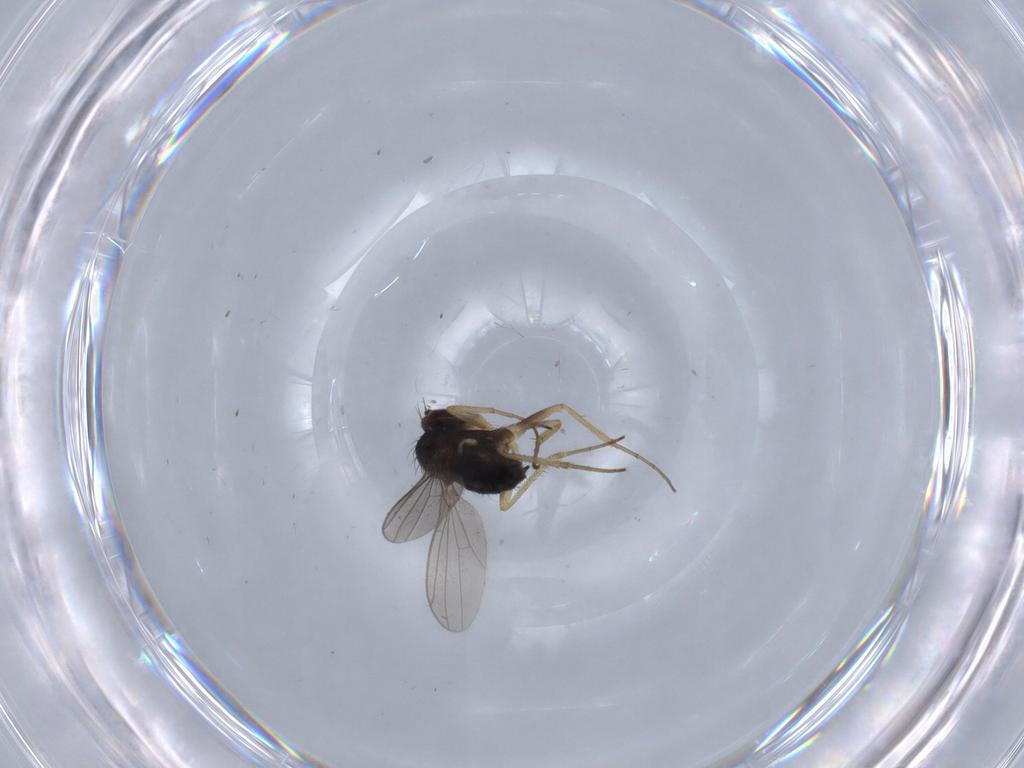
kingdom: Animalia
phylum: Arthropoda
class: Insecta
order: Diptera
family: Dolichopodidae
